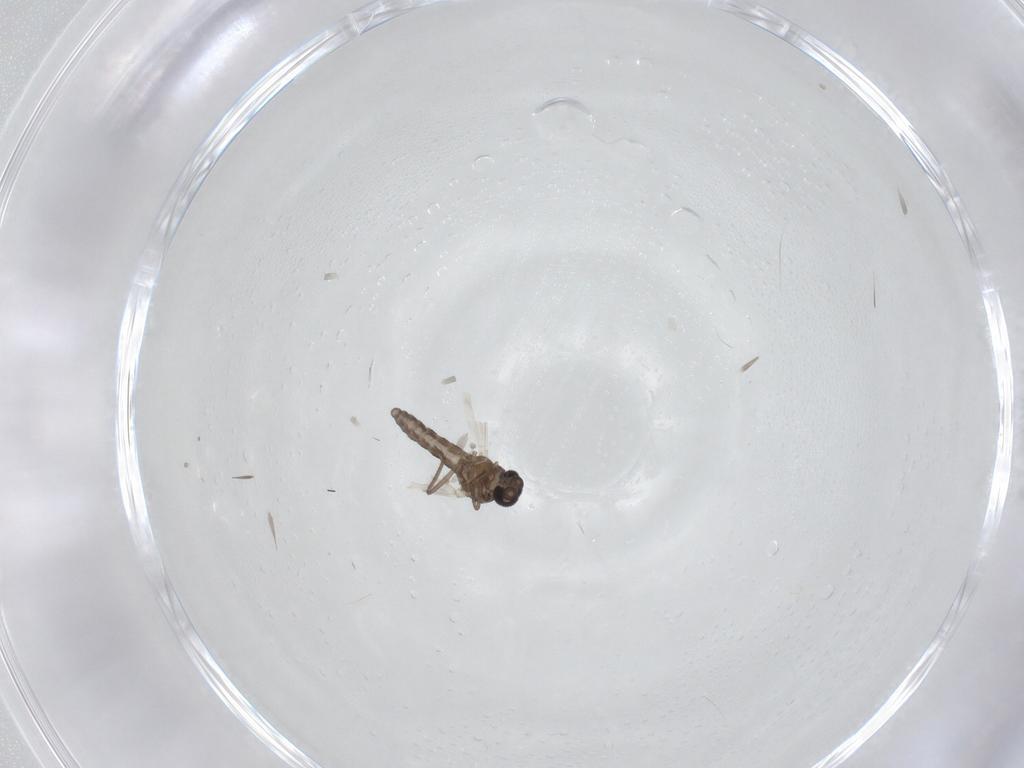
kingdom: Animalia
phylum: Arthropoda
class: Insecta
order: Diptera
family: Ceratopogonidae
